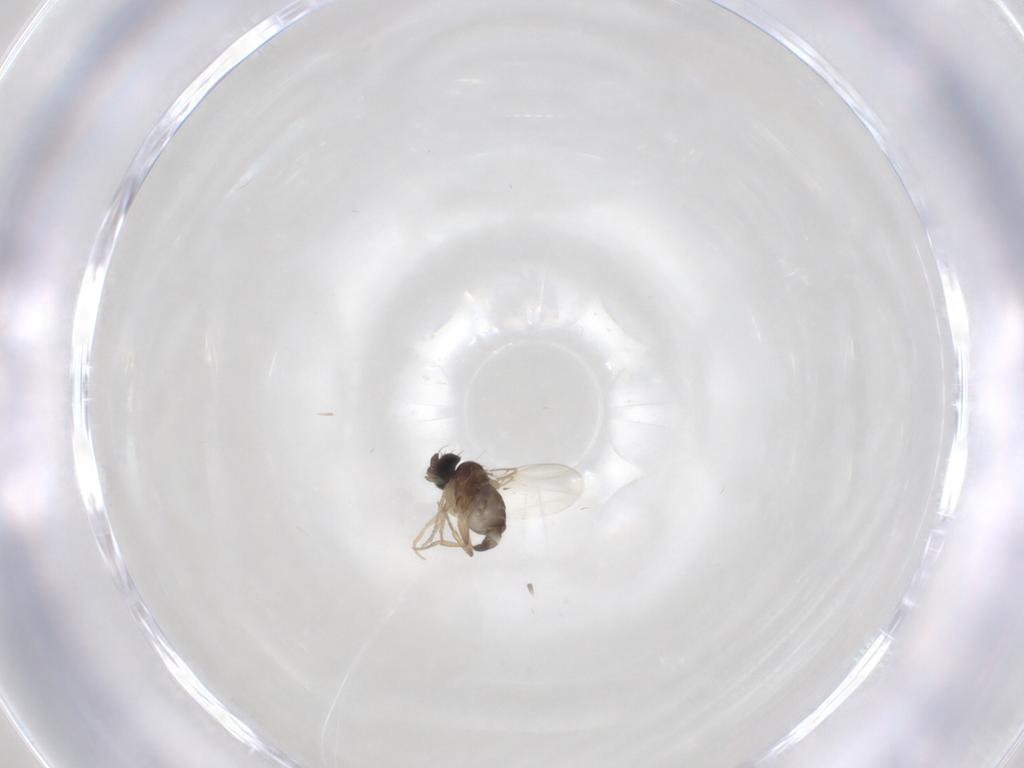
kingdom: Animalia
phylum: Arthropoda
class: Insecta
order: Diptera
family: Phoridae
